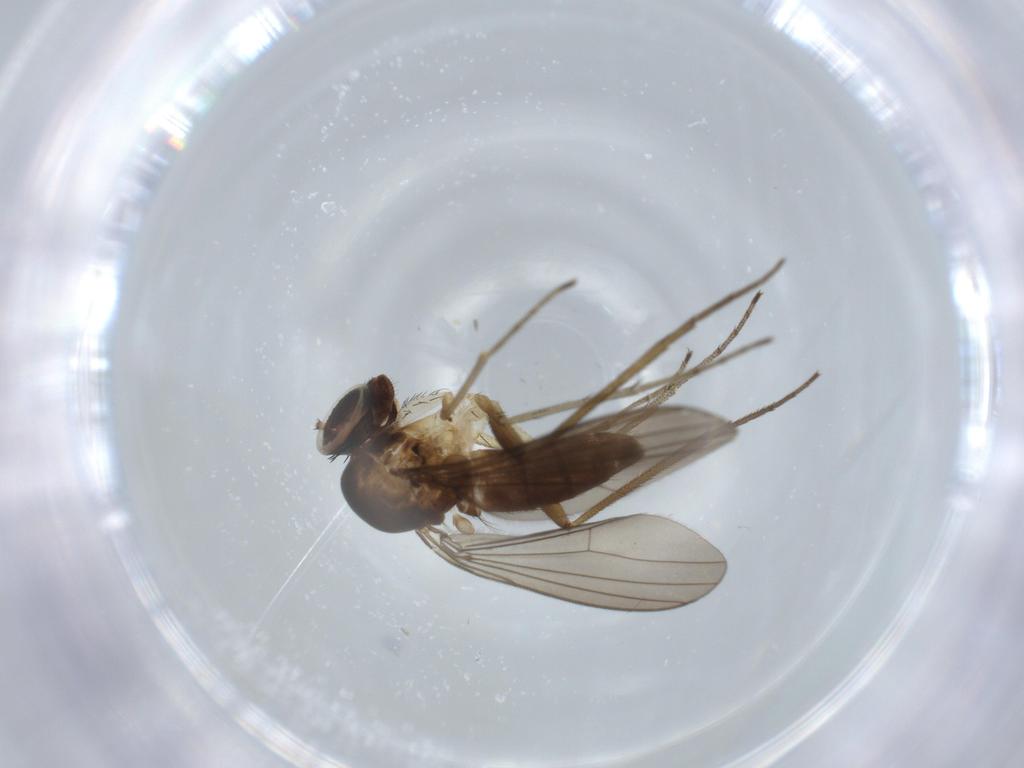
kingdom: Animalia
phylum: Arthropoda
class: Insecta
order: Diptera
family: Dolichopodidae
